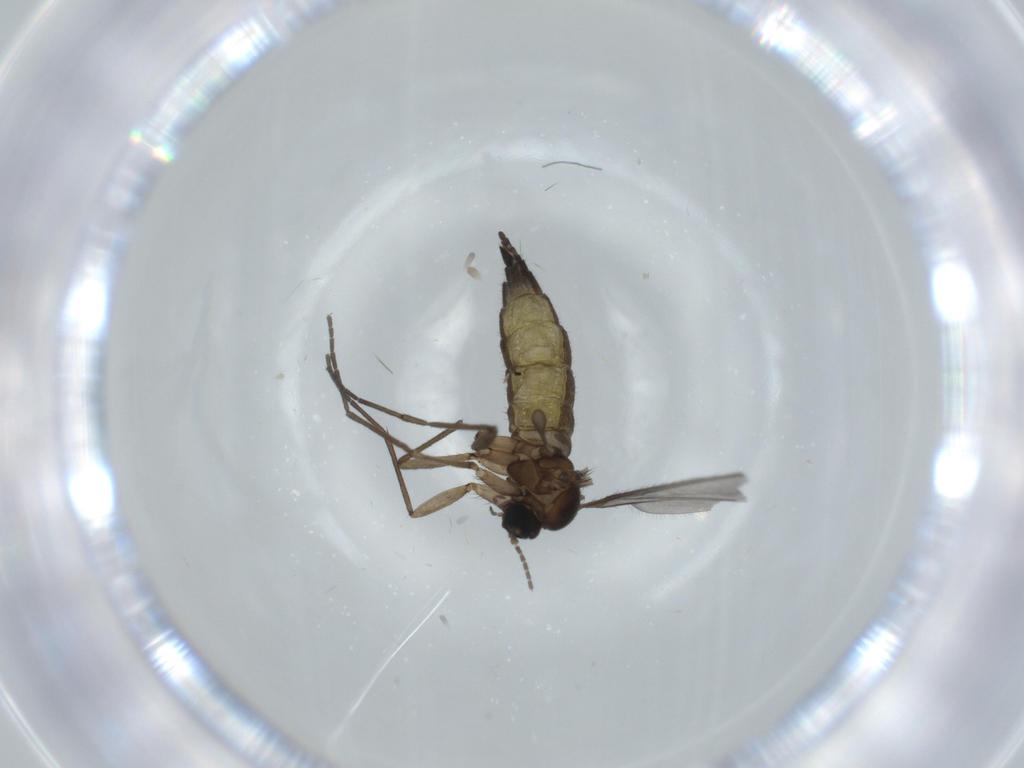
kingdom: Animalia
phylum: Arthropoda
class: Insecta
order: Diptera
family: Sciaridae
